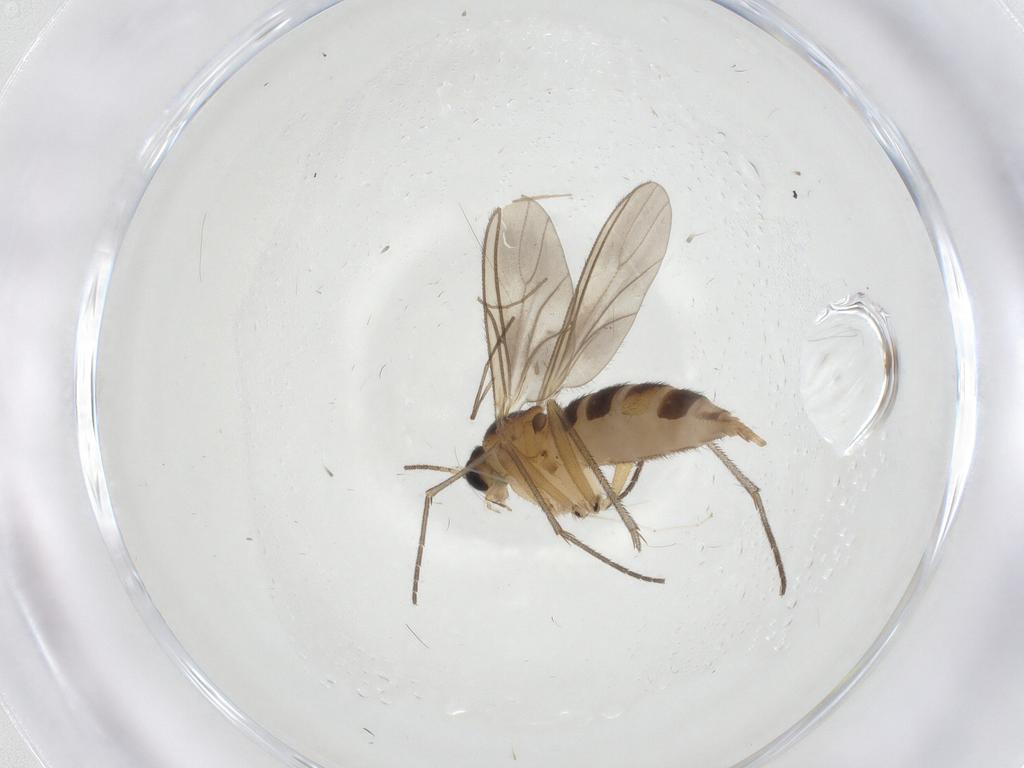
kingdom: Animalia
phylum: Arthropoda
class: Insecta
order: Diptera
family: Sciaridae
